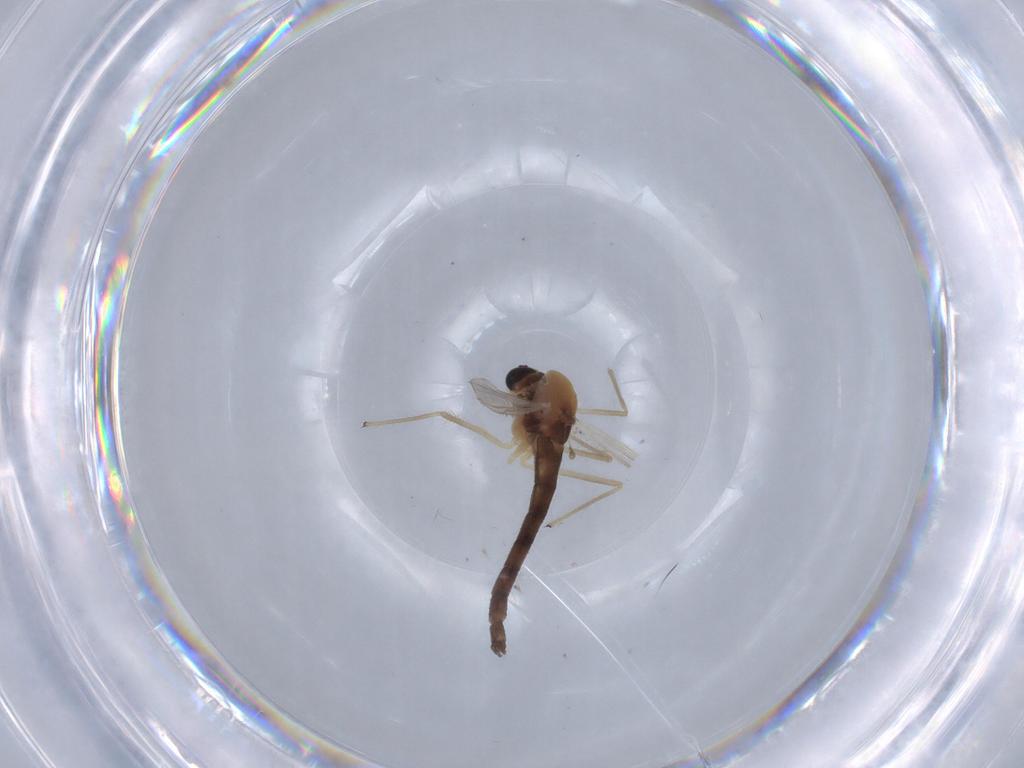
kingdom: Animalia
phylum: Arthropoda
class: Insecta
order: Diptera
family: Chironomidae
